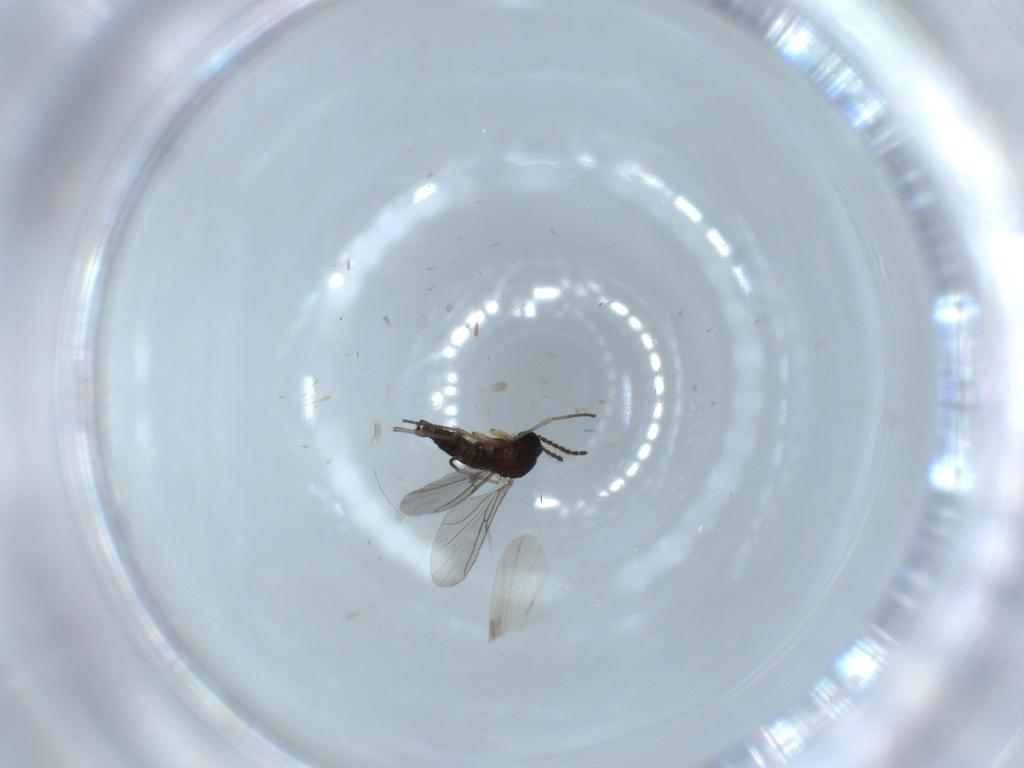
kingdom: Animalia
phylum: Arthropoda
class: Insecta
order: Diptera
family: Sciaridae
